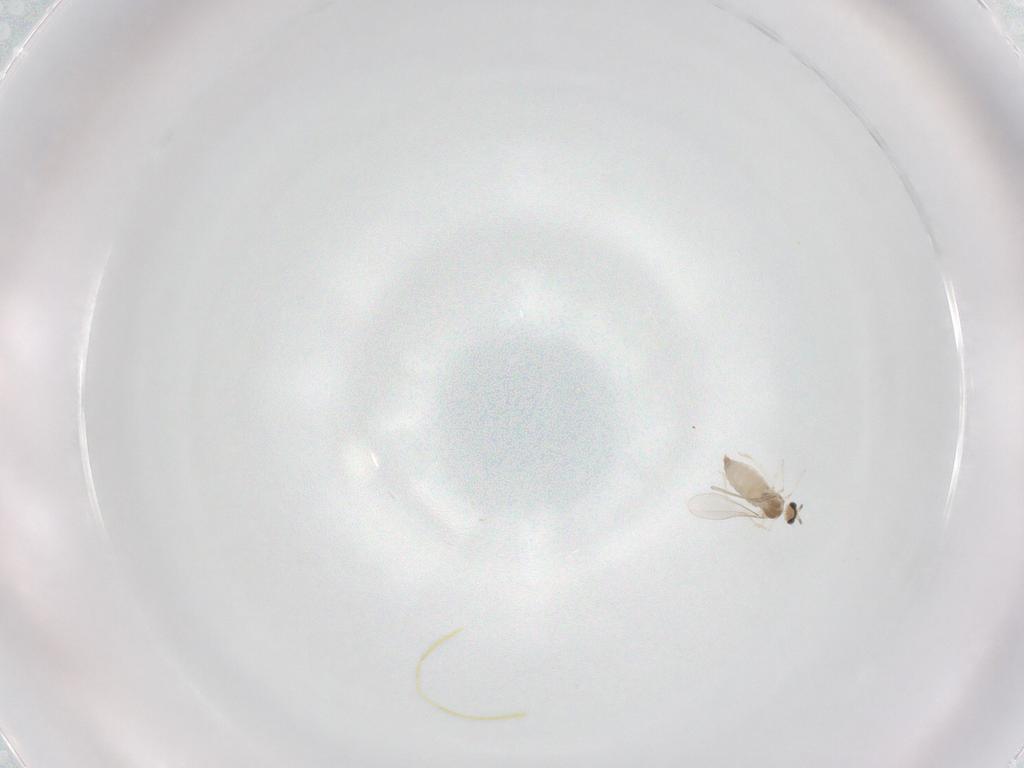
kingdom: Animalia
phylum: Arthropoda
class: Insecta
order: Diptera
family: Cecidomyiidae
